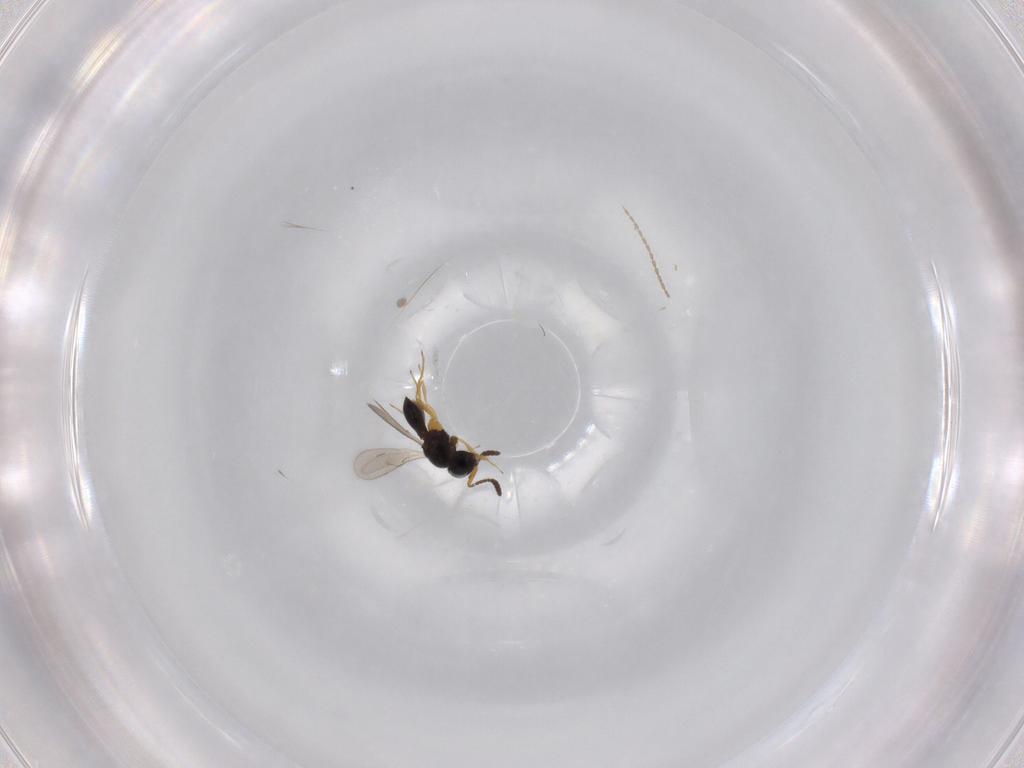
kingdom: Animalia
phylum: Arthropoda
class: Insecta
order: Hymenoptera
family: Scelionidae
